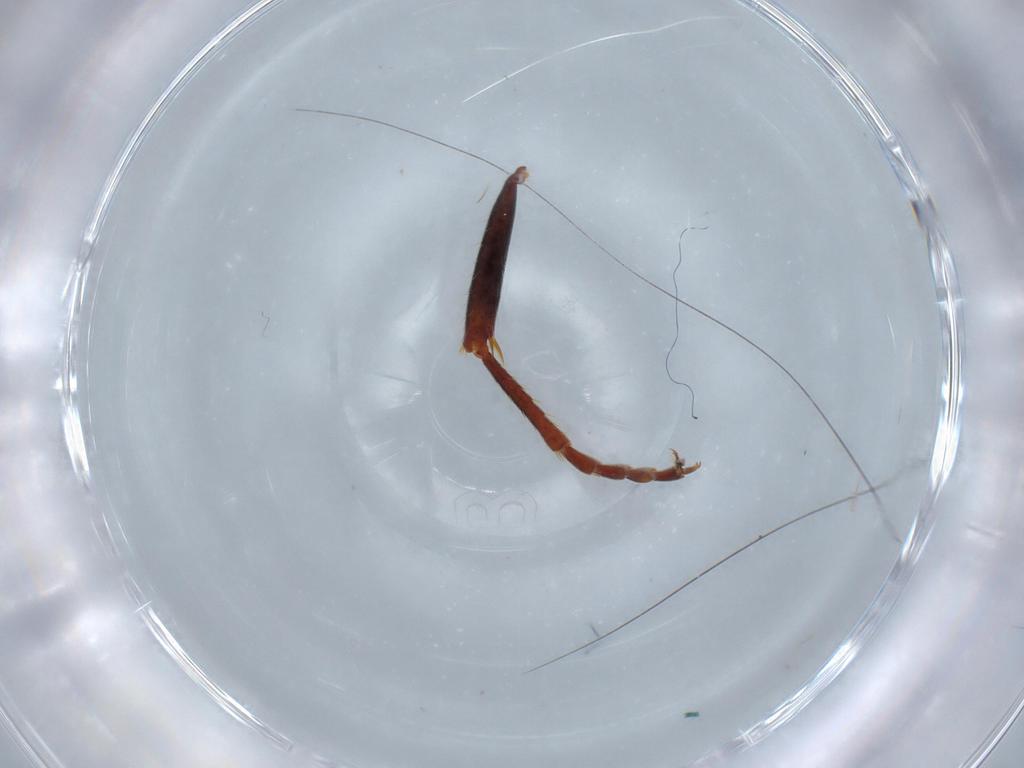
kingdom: Animalia
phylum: Arthropoda
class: Insecta
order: Hymenoptera
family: Formicidae
